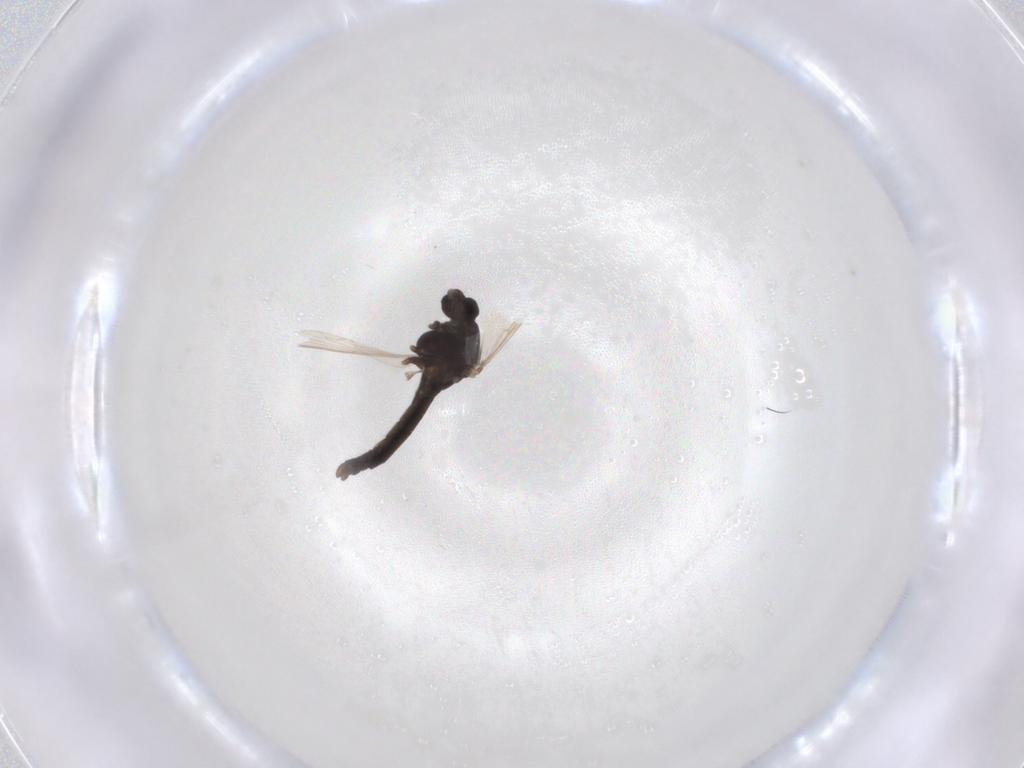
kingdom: Animalia
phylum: Arthropoda
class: Insecta
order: Diptera
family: Chironomidae
